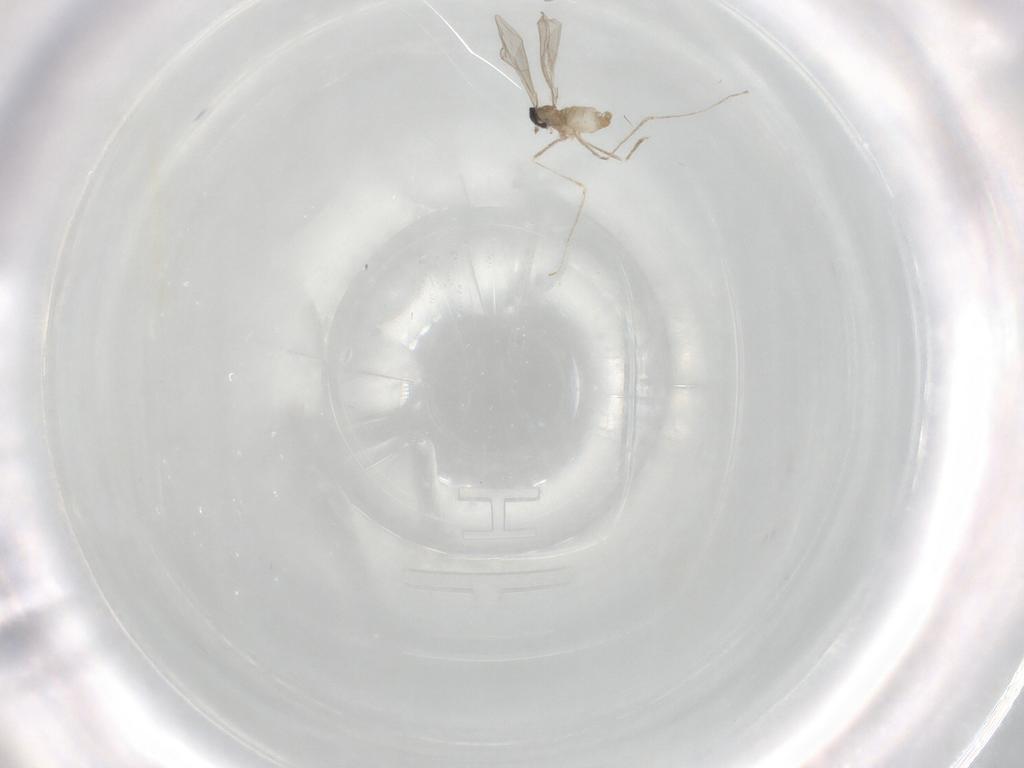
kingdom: Animalia
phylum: Arthropoda
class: Insecta
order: Diptera
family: Cecidomyiidae
